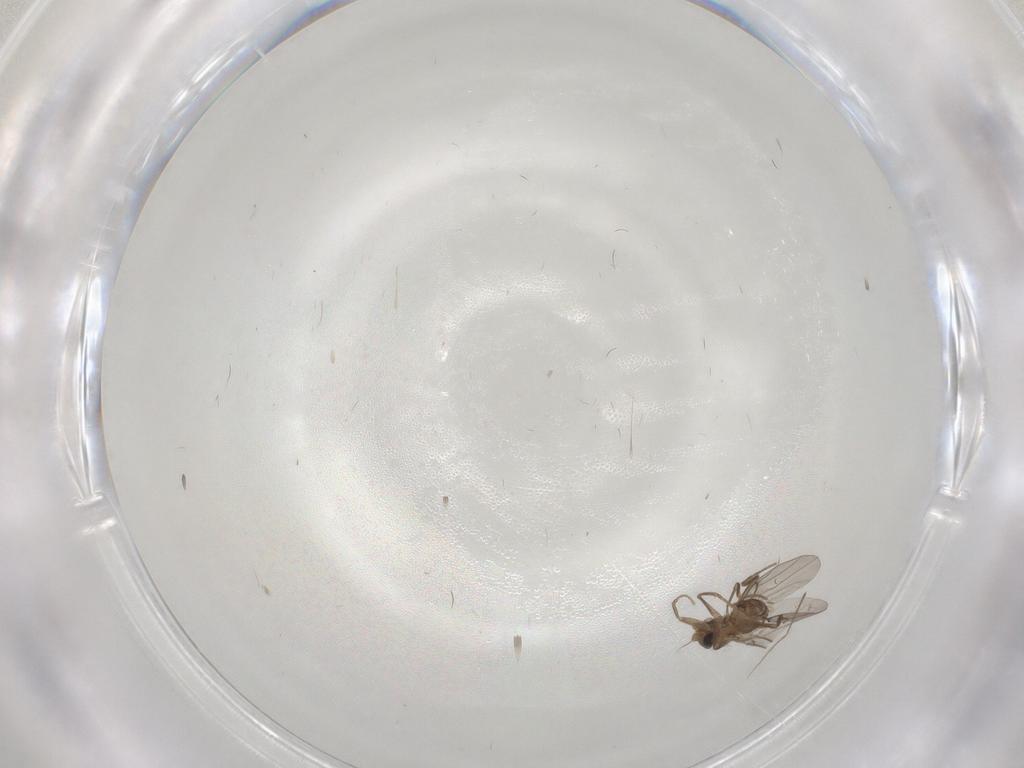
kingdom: Animalia
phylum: Arthropoda
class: Insecta
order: Diptera
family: Cecidomyiidae
